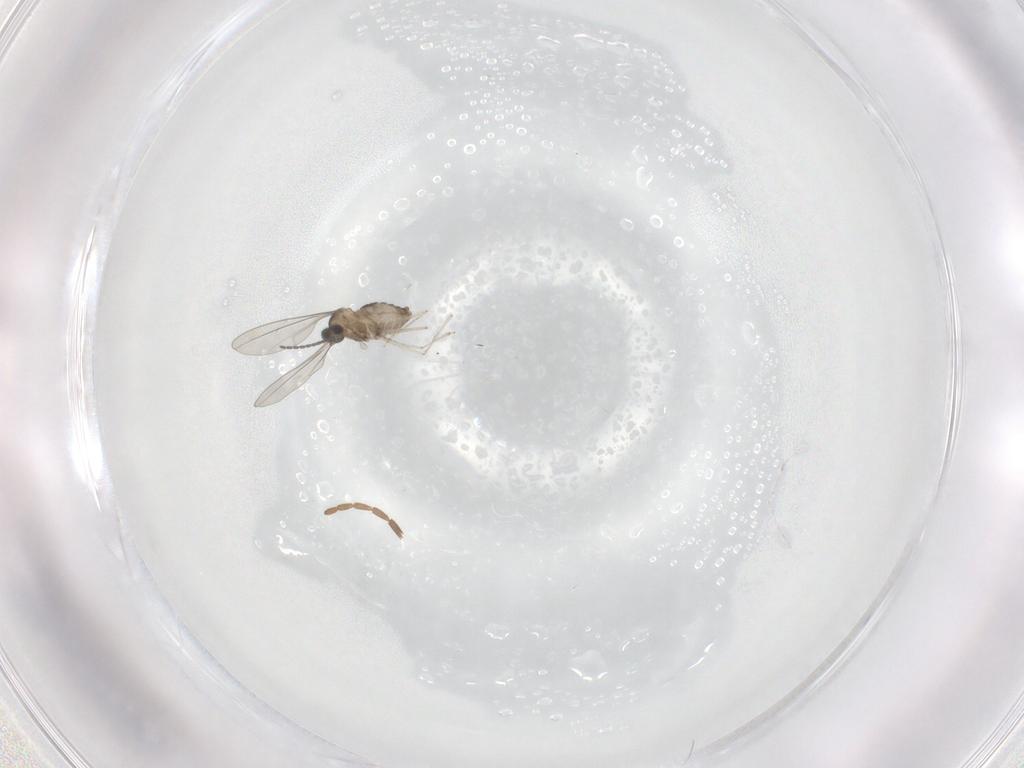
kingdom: Animalia
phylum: Arthropoda
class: Insecta
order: Diptera
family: Cecidomyiidae
